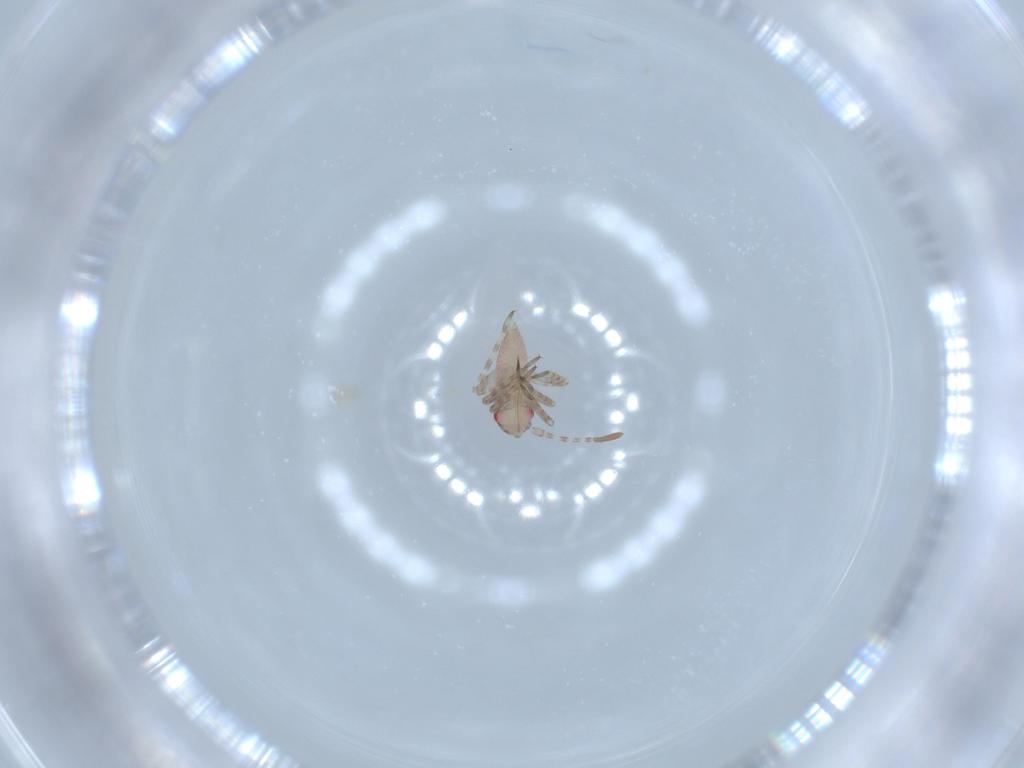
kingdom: Animalia
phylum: Arthropoda
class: Insecta
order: Hemiptera
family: Miridae
